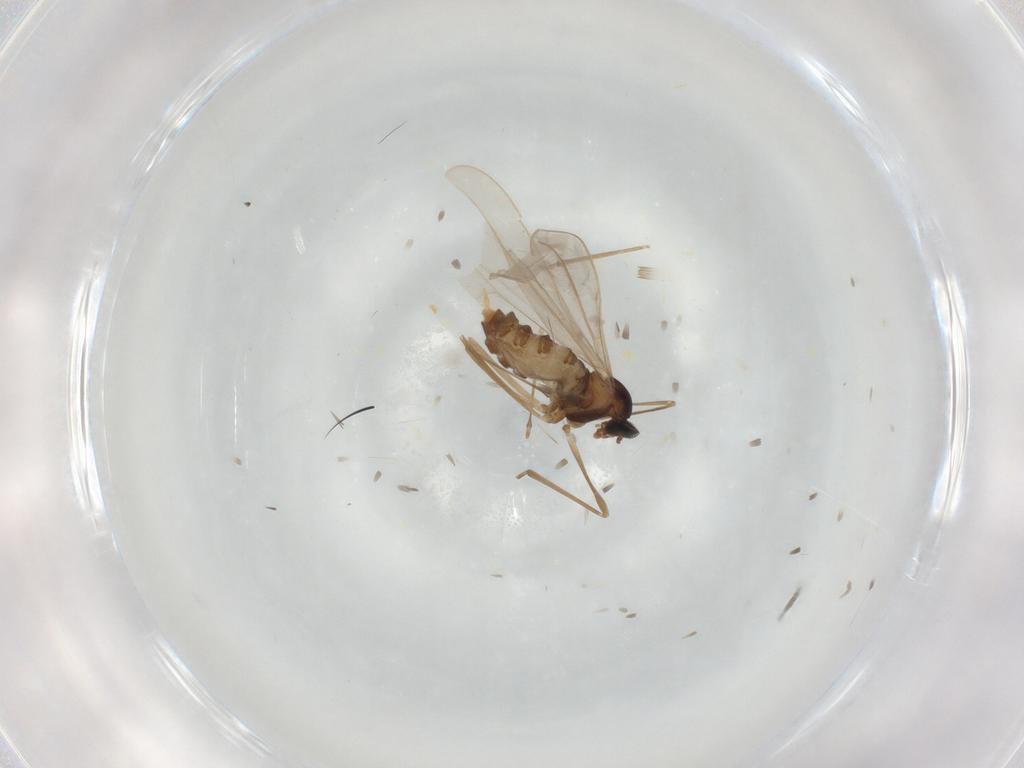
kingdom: Animalia
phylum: Arthropoda
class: Insecta
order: Diptera
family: Cecidomyiidae
